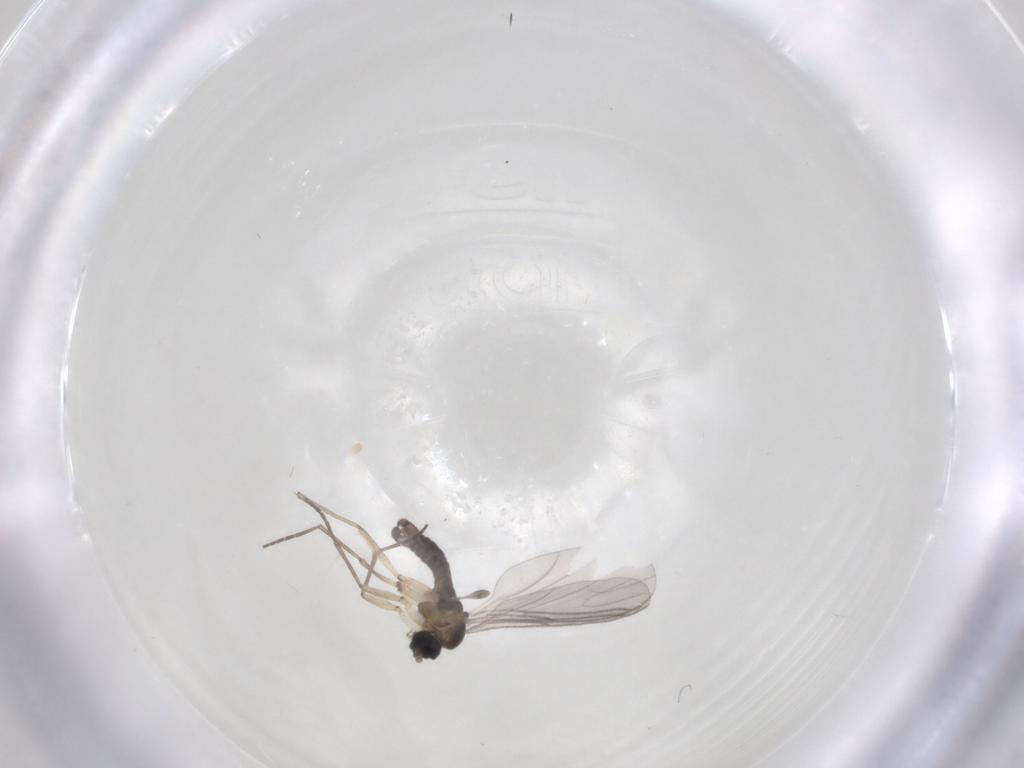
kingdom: Animalia
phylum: Arthropoda
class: Insecta
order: Diptera
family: Sciaridae
